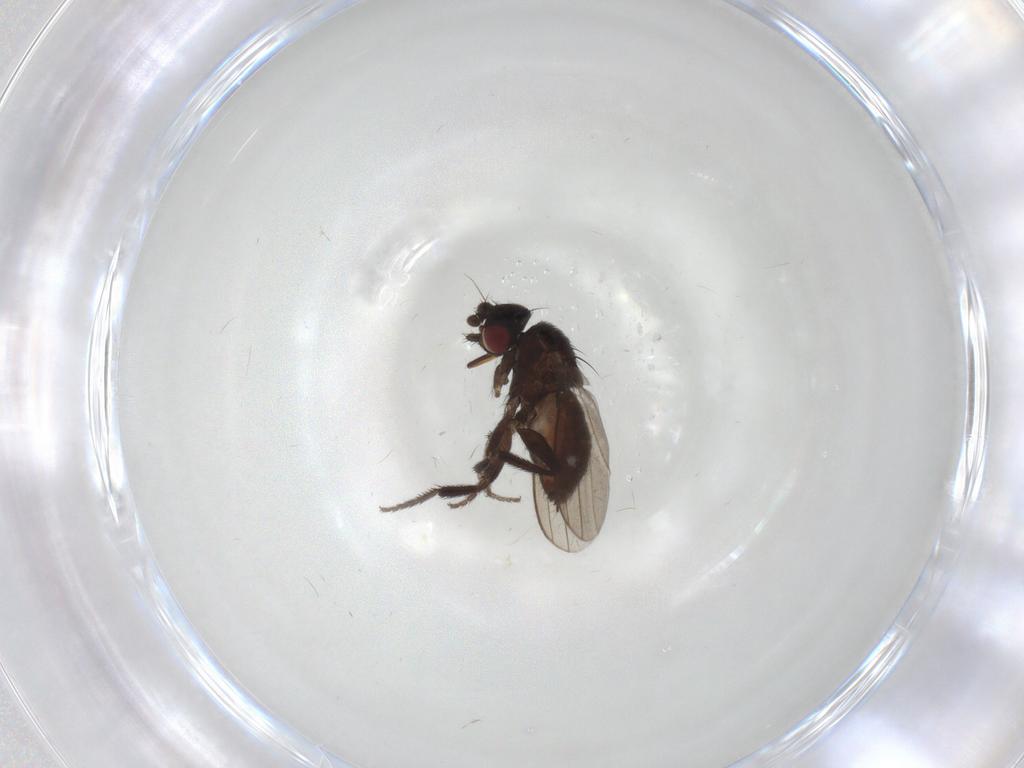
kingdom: Animalia
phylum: Arthropoda
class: Insecta
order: Diptera
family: Milichiidae
